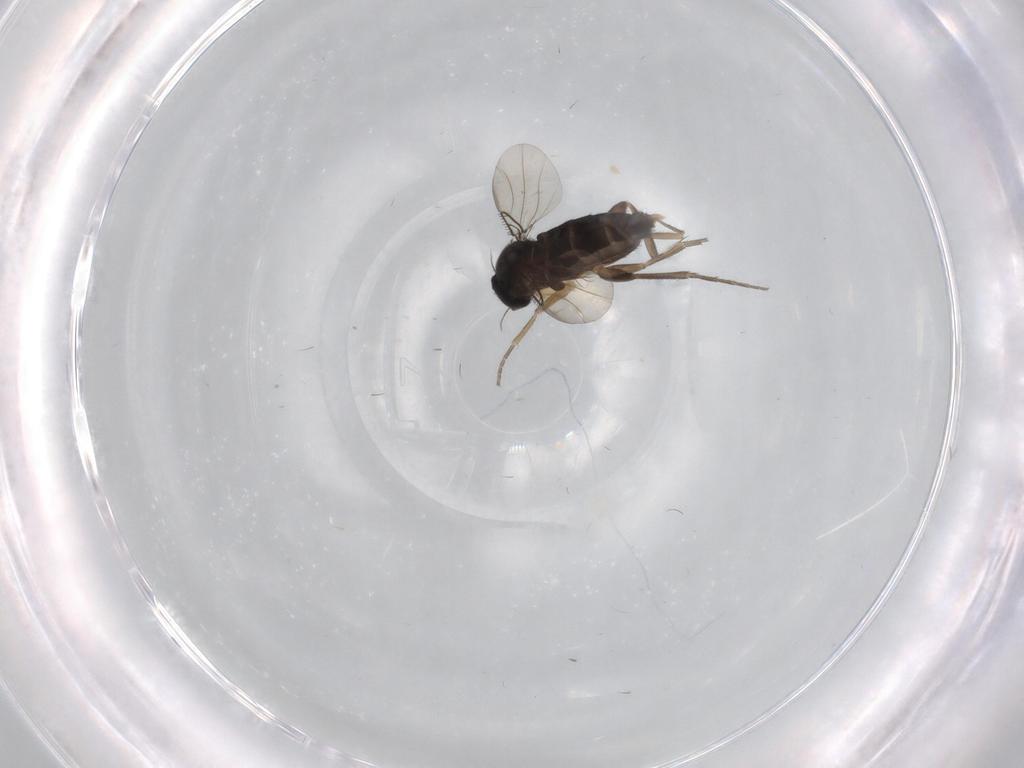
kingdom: Animalia
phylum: Arthropoda
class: Insecta
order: Diptera
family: Phoridae
